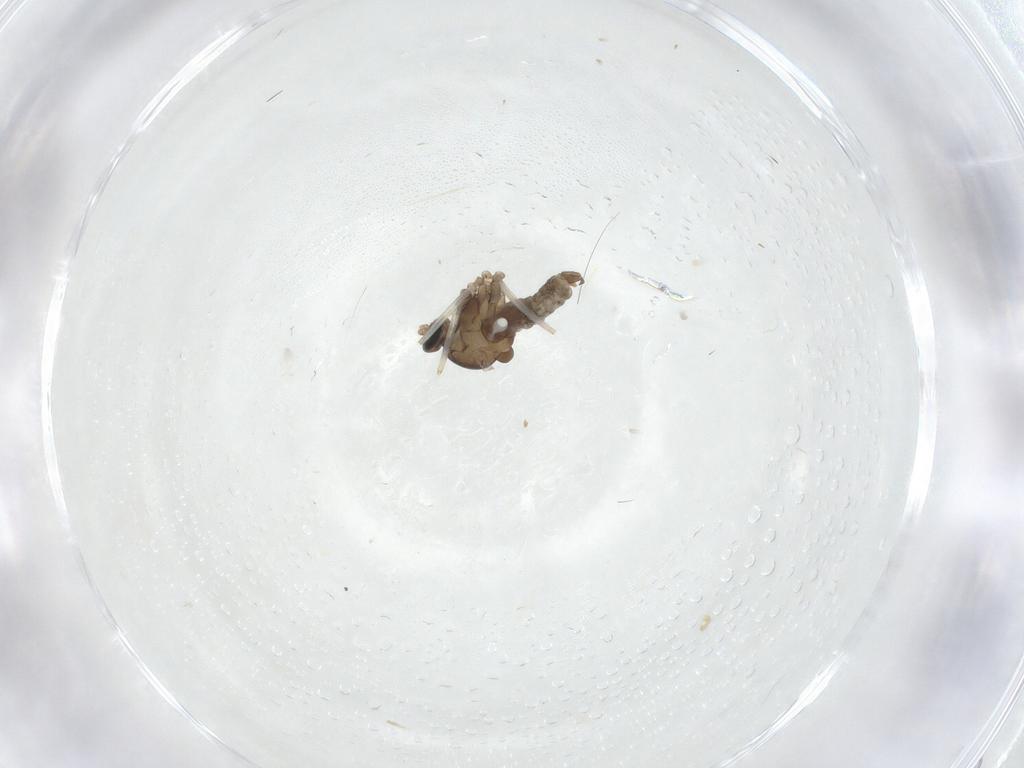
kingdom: Animalia
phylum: Arthropoda
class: Insecta
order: Diptera
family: Cecidomyiidae
